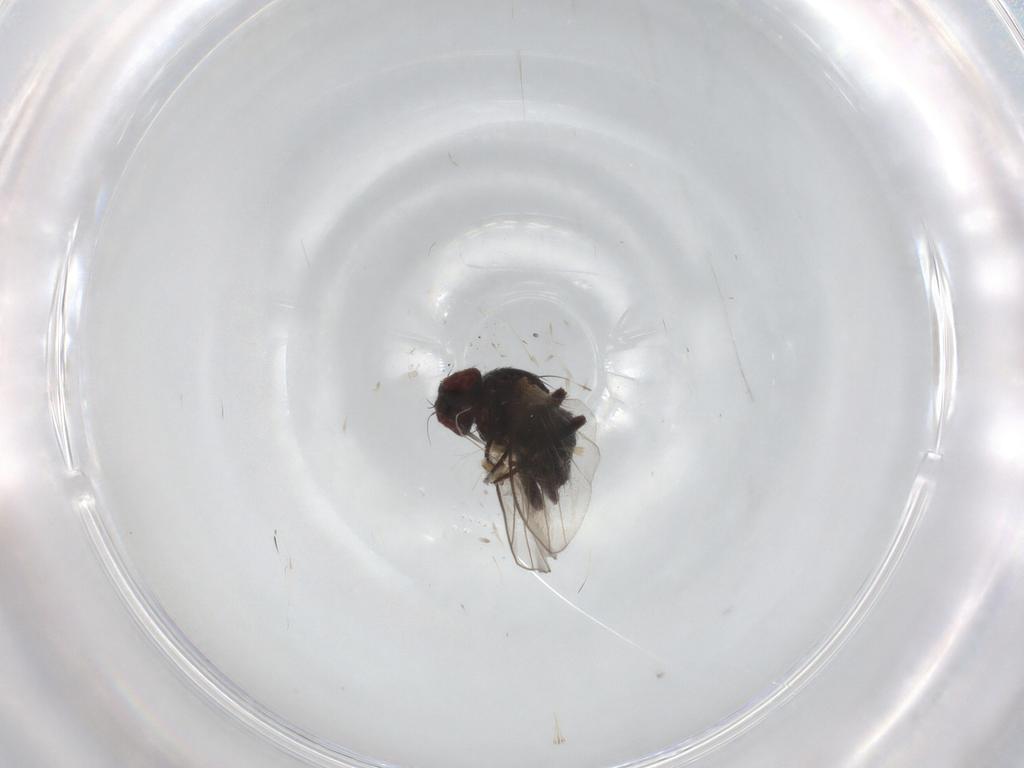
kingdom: Animalia
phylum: Arthropoda
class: Insecta
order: Diptera
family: Agromyzidae
